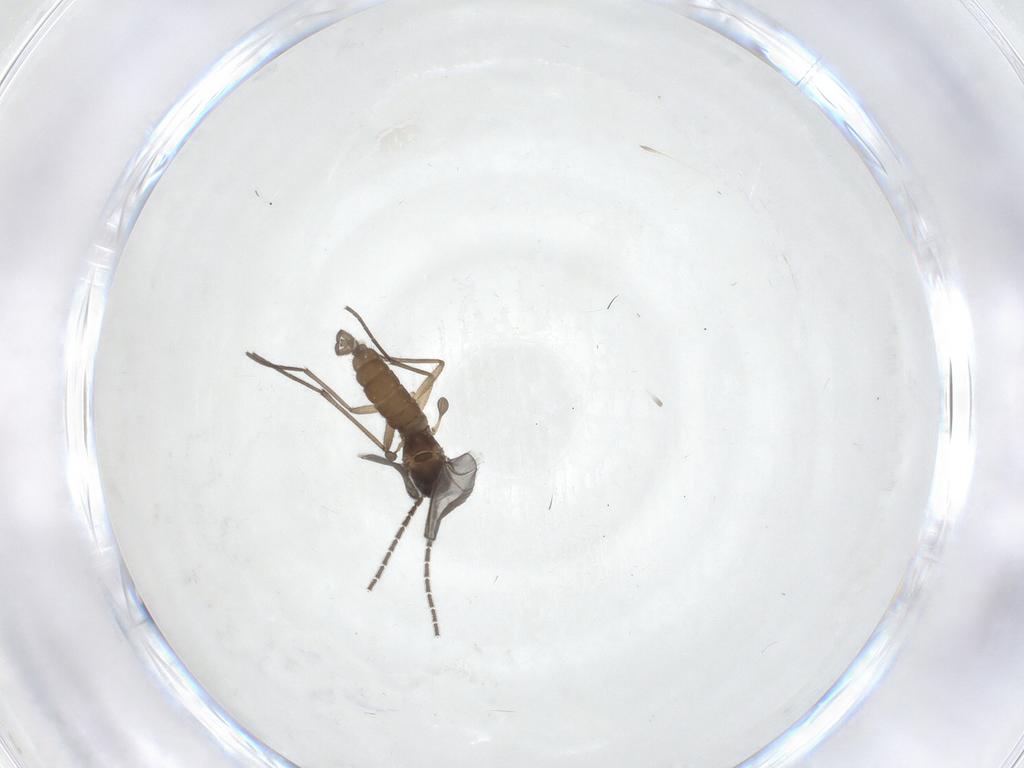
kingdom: Animalia
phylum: Arthropoda
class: Insecta
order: Diptera
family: Sciaridae
